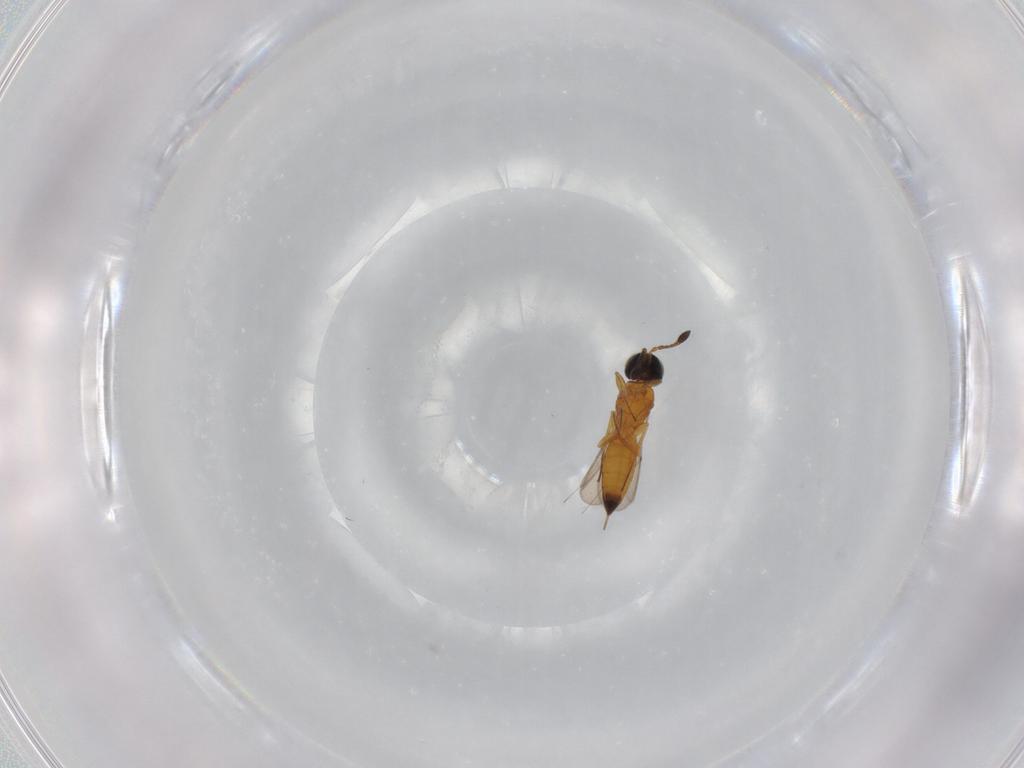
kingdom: Animalia
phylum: Arthropoda
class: Insecta
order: Hymenoptera
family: Scelionidae
